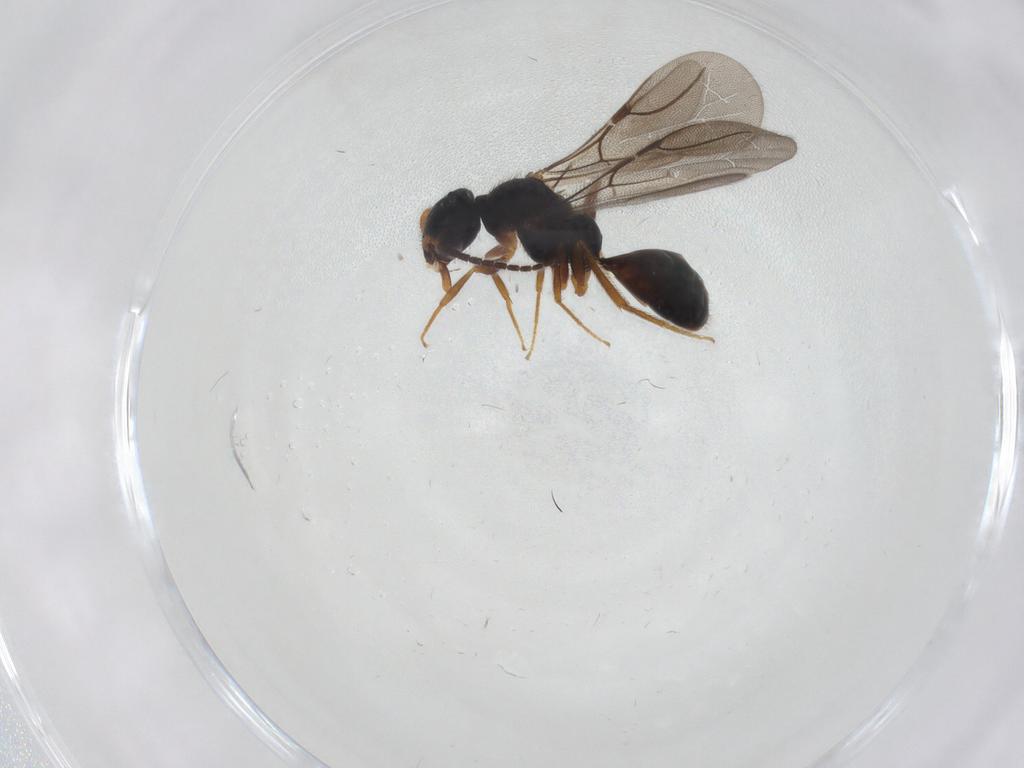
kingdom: Animalia
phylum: Arthropoda
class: Insecta
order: Hymenoptera
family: Bethylidae
